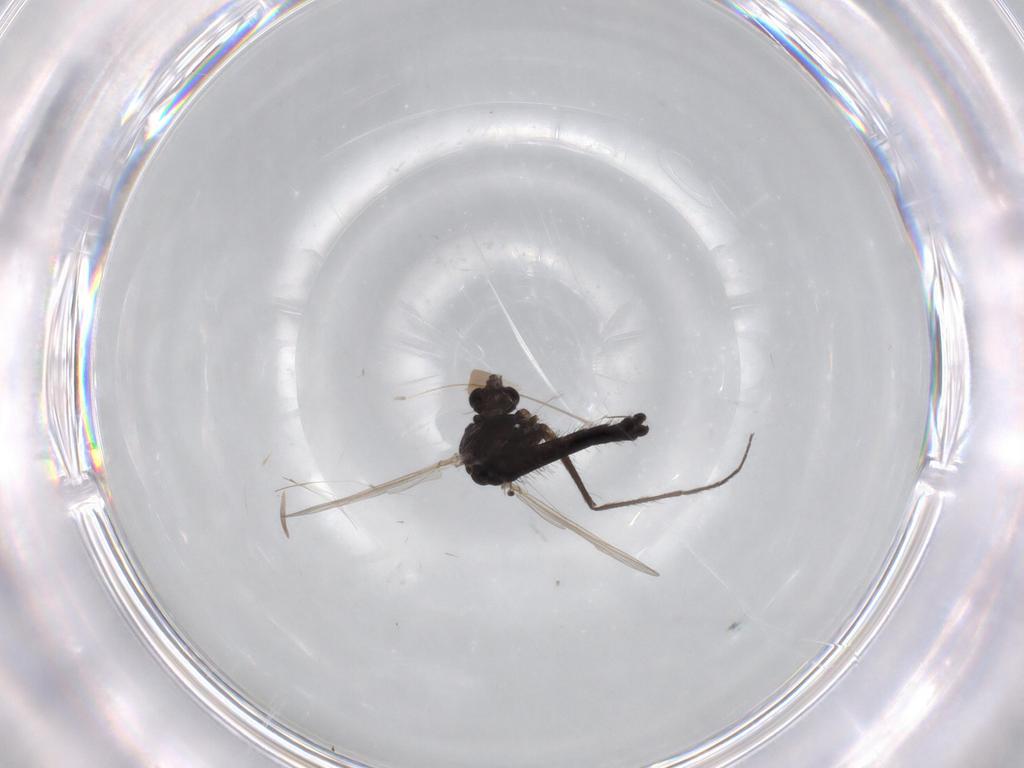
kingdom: Animalia
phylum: Arthropoda
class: Insecta
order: Diptera
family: Chironomidae
